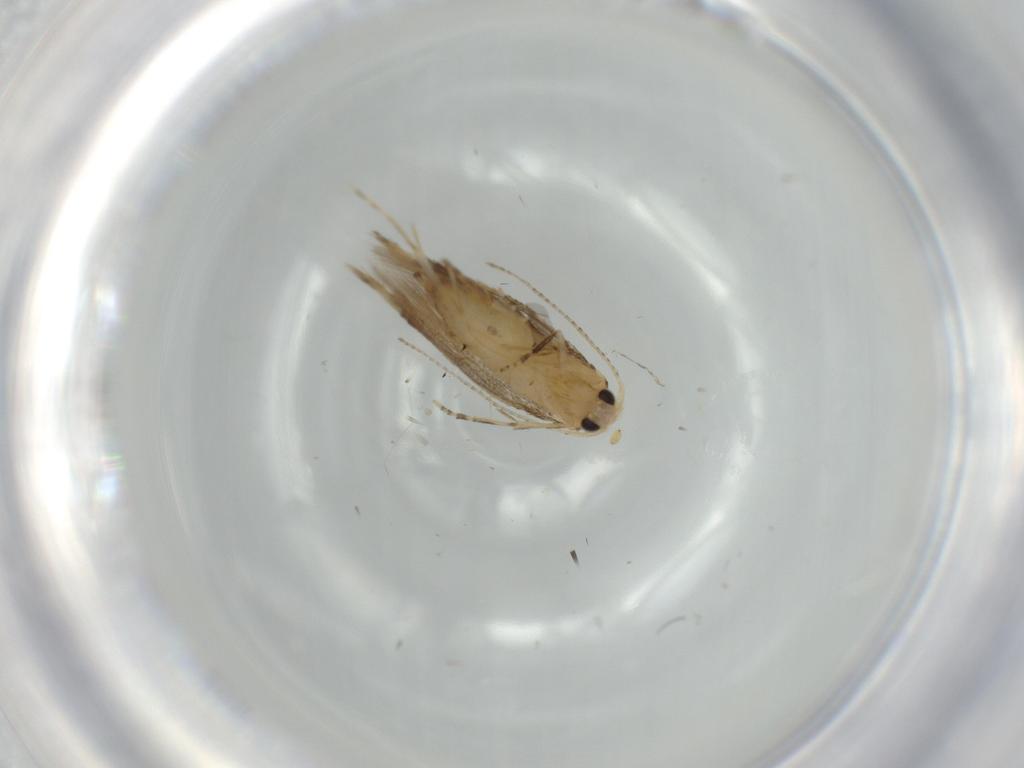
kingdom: Animalia
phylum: Arthropoda
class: Insecta
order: Lepidoptera
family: Bucculatricidae
